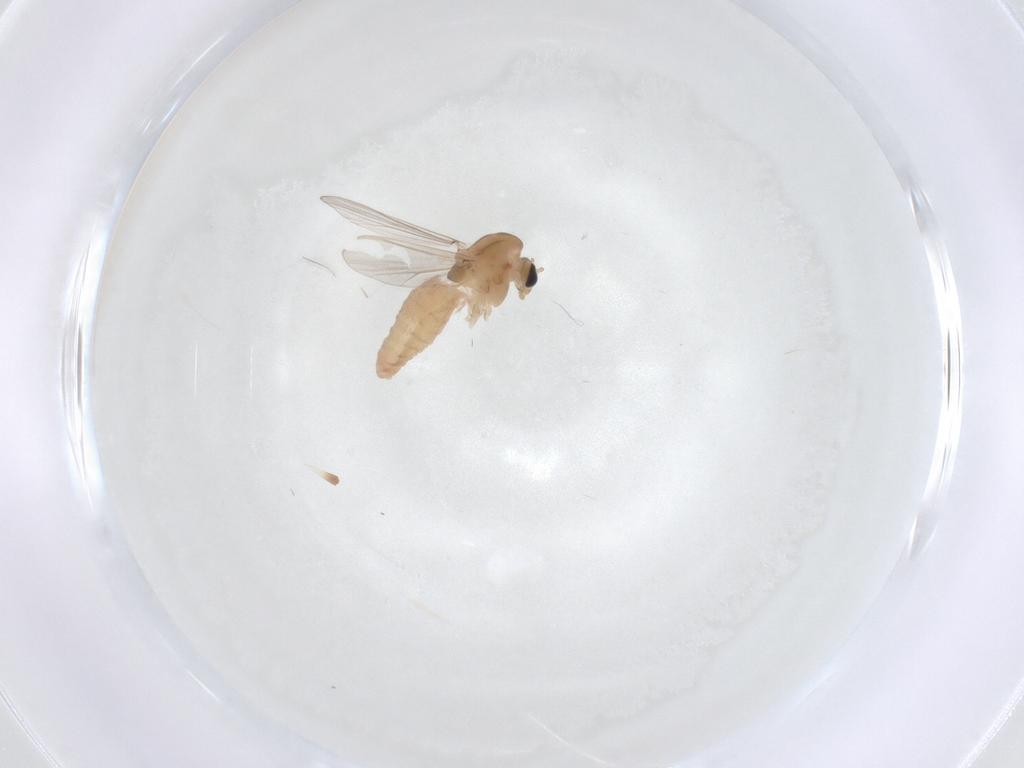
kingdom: Animalia
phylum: Arthropoda
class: Insecta
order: Diptera
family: Chironomidae
